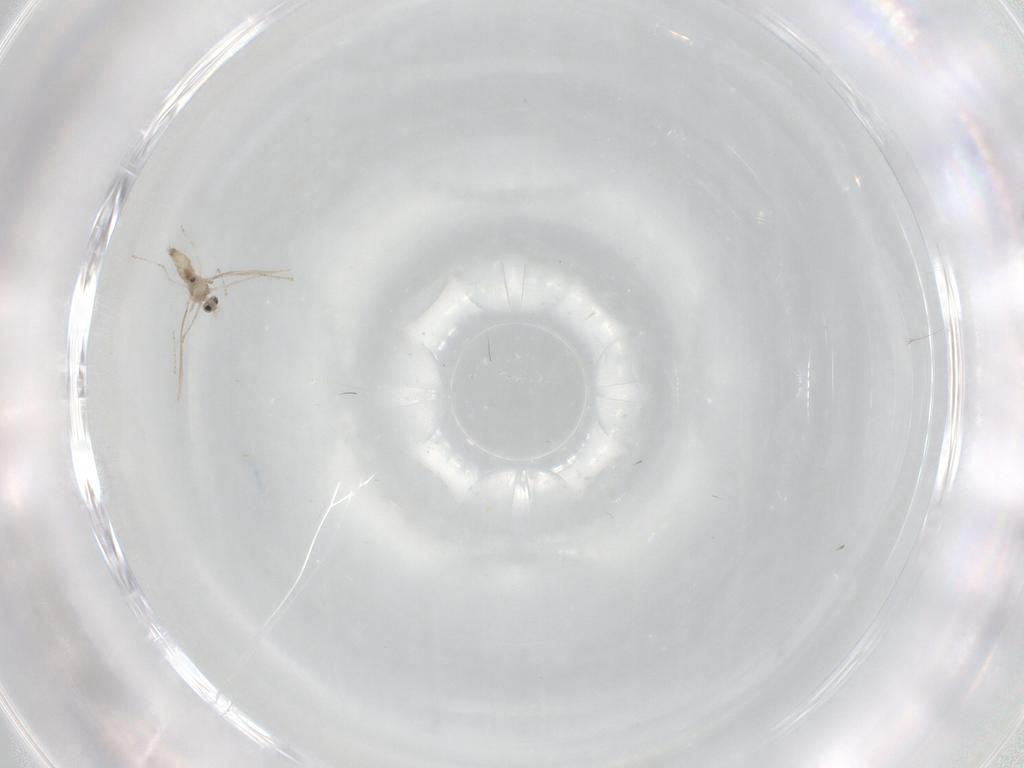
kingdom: Animalia
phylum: Arthropoda
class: Insecta
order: Diptera
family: Cecidomyiidae
